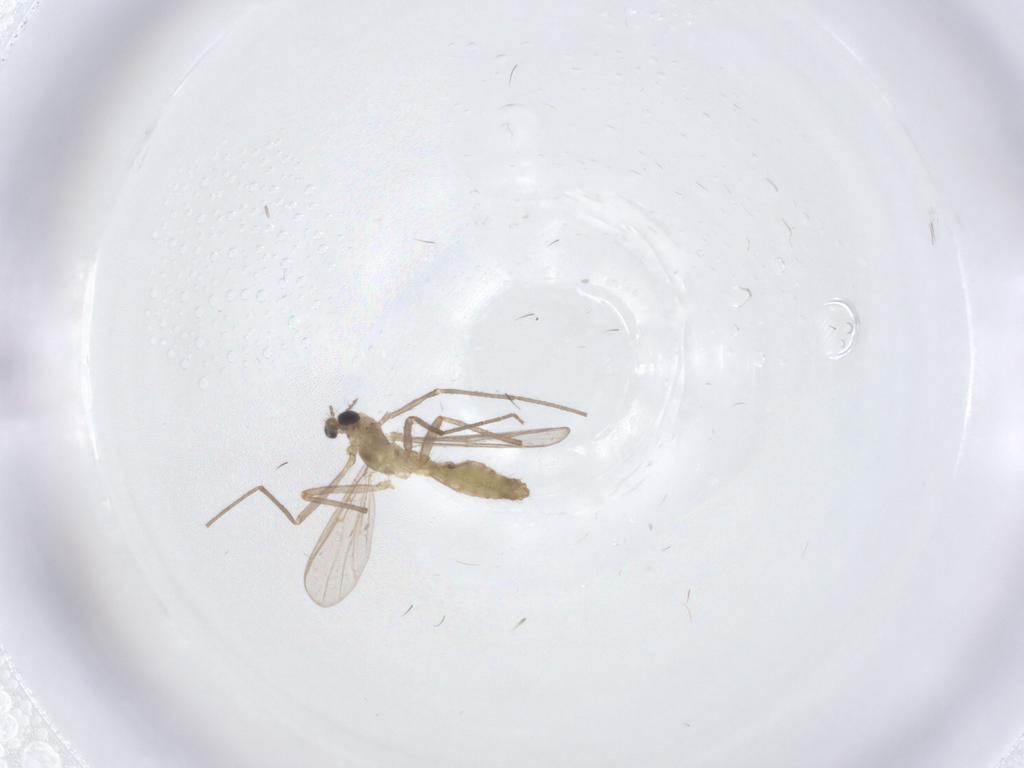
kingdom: Animalia
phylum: Arthropoda
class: Insecta
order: Diptera
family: Chironomidae
